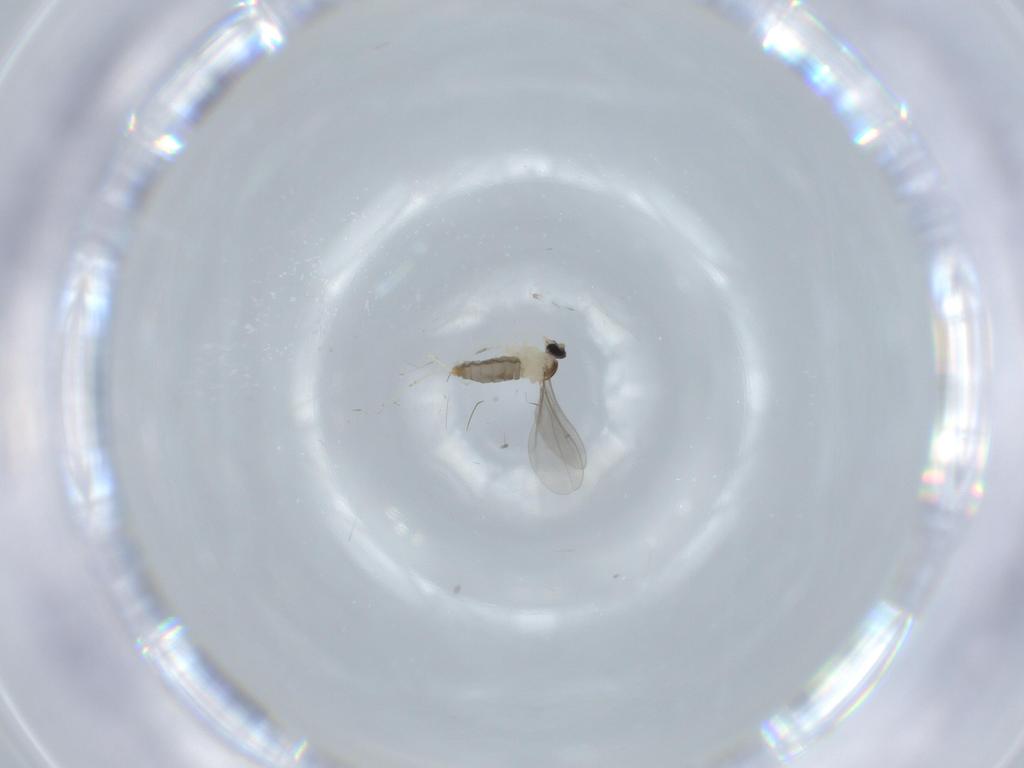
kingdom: Animalia
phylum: Arthropoda
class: Insecta
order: Diptera
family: Cecidomyiidae
